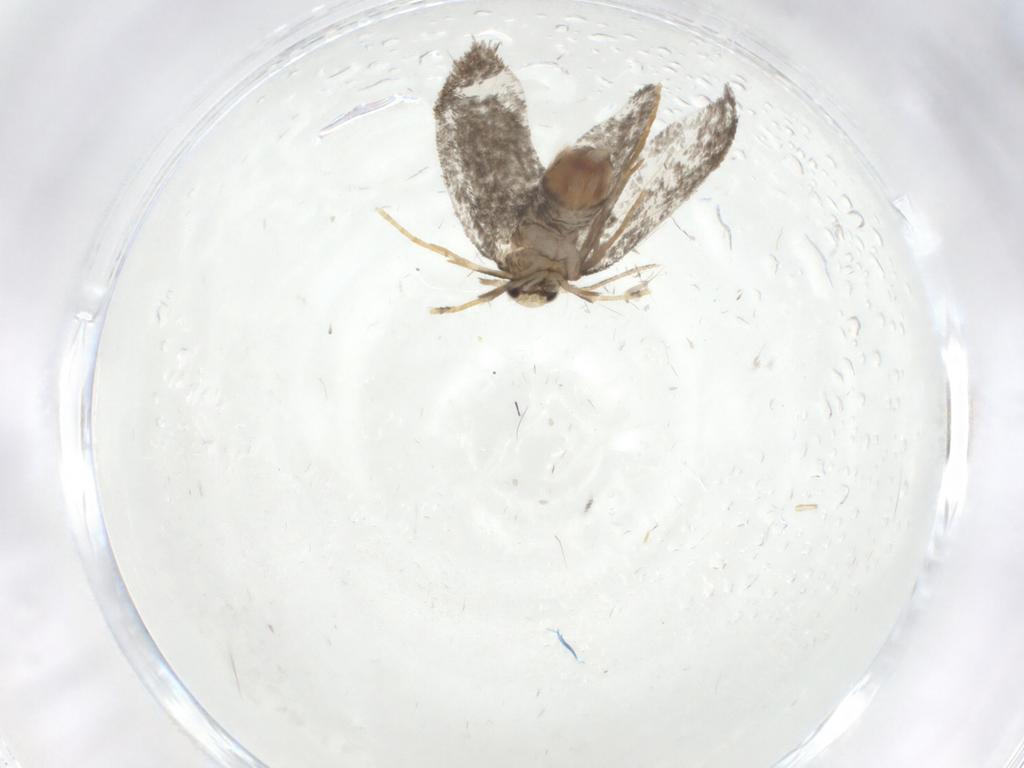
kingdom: Animalia
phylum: Arthropoda
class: Insecta
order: Lepidoptera
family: Psychidae
